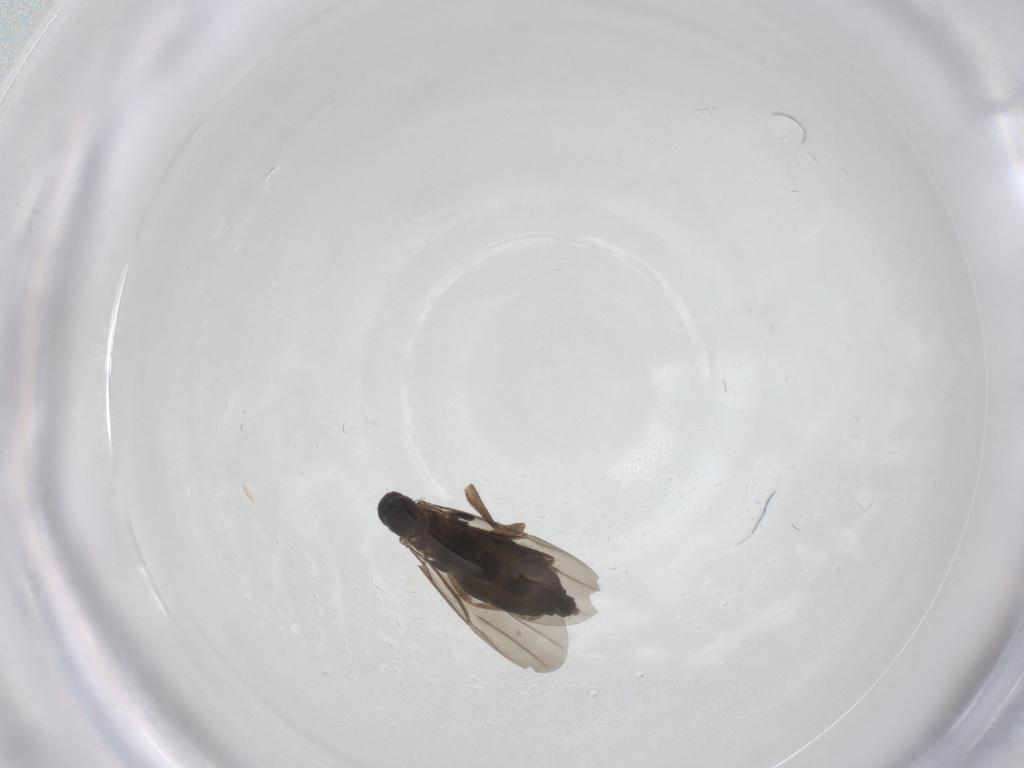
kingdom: Animalia
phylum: Arthropoda
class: Insecta
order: Diptera
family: Phoridae
